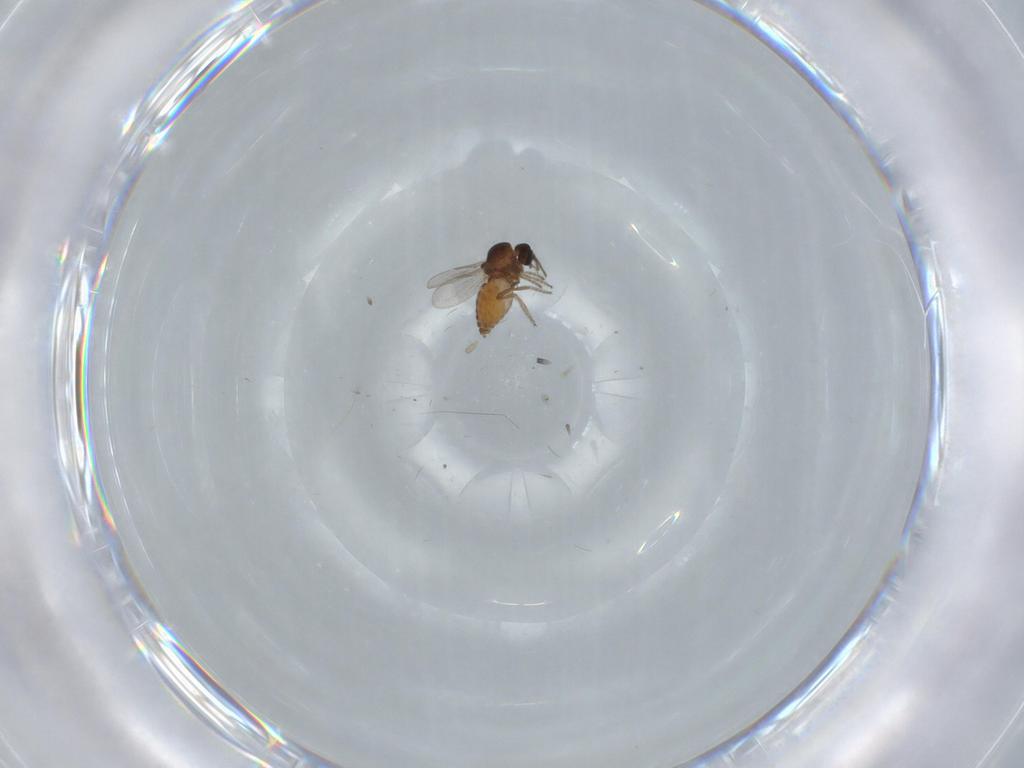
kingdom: Animalia
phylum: Arthropoda
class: Insecta
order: Diptera
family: Ceratopogonidae
